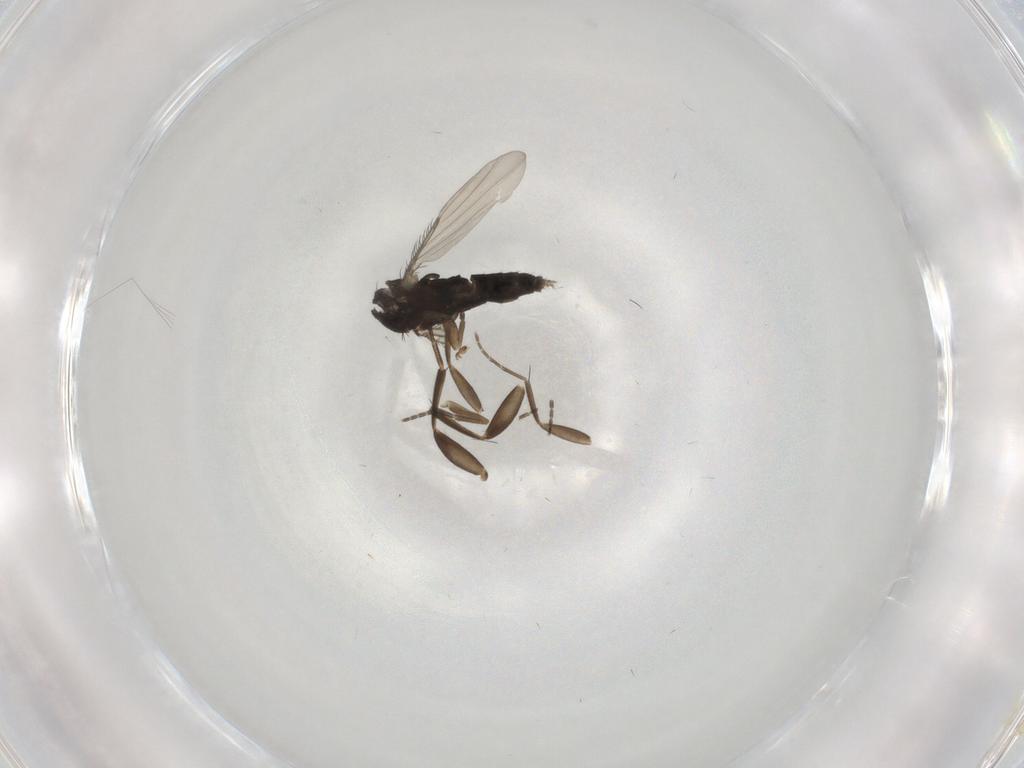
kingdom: Animalia
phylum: Arthropoda
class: Insecta
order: Diptera
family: Phoridae
